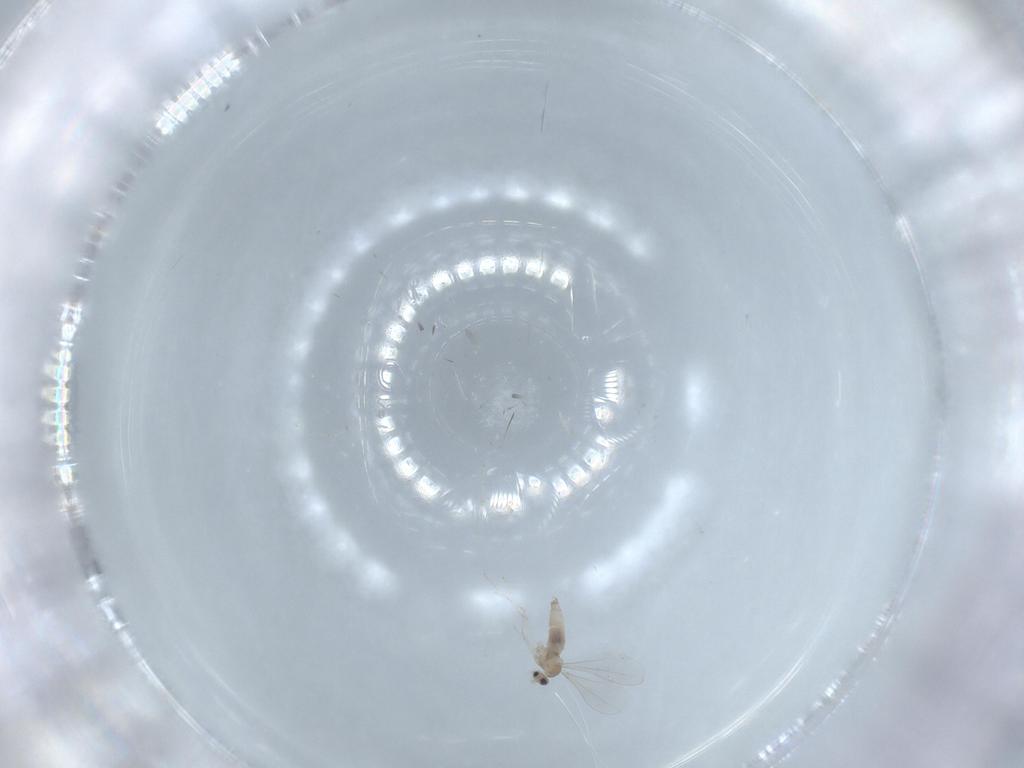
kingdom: Animalia
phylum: Arthropoda
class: Insecta
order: Diptera
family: Cecidomyiidae
